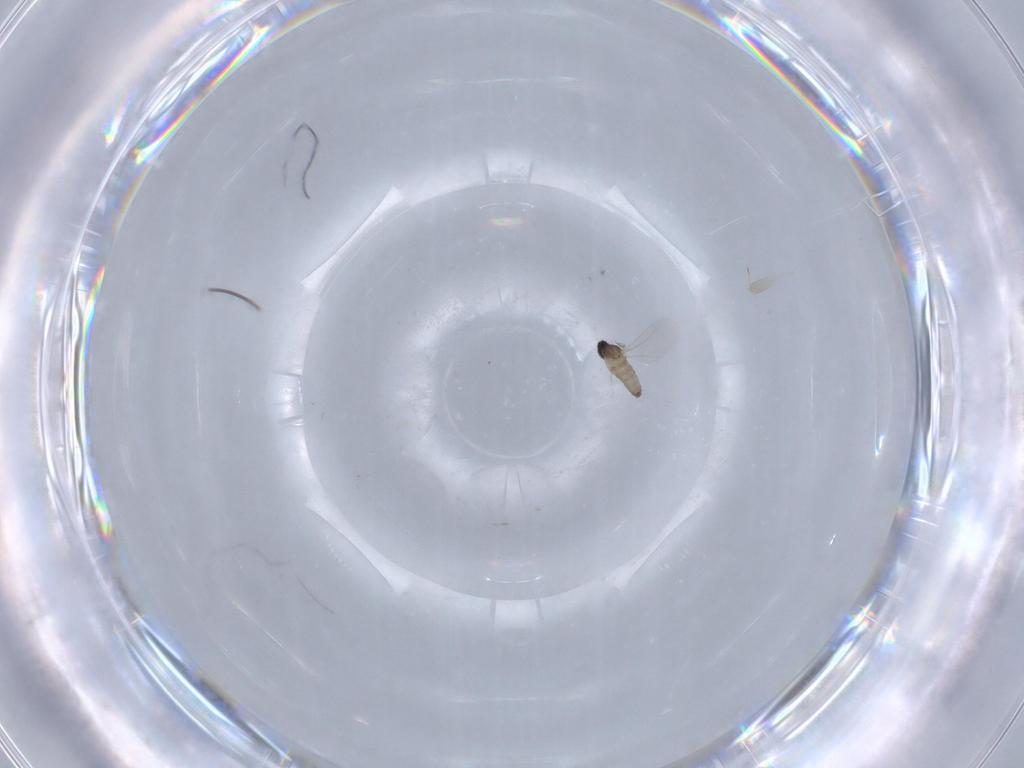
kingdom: Animalia
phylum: Arthropoda
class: Insecta
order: Diptera
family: Cecidomyiidae
